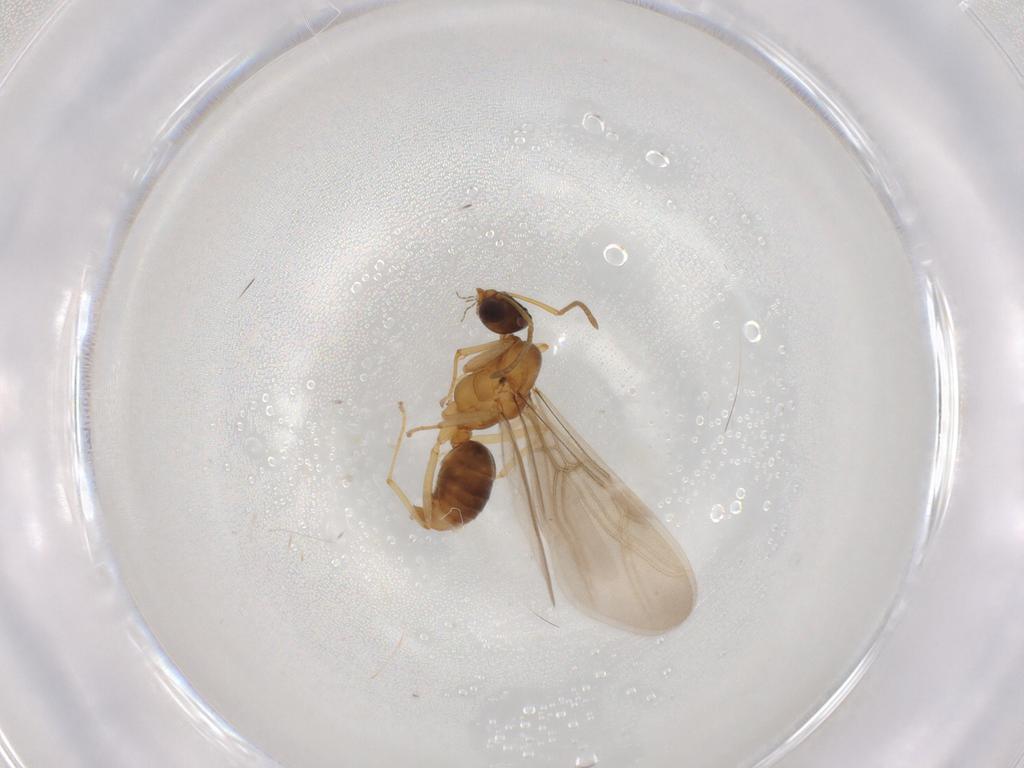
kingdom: Animalia
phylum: Arthropoda
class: Insecta
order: Hymenoptera
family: Formicidae
